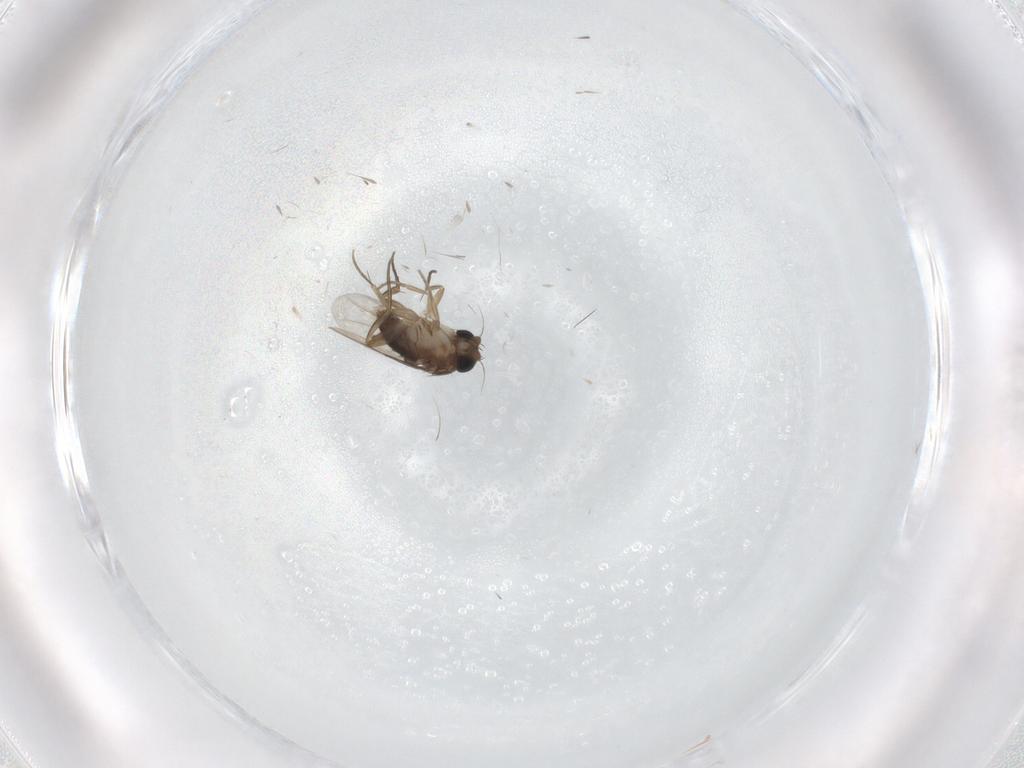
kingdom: Animalia
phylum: Arthropoda
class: Insecta
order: Diptera
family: Phoridae
